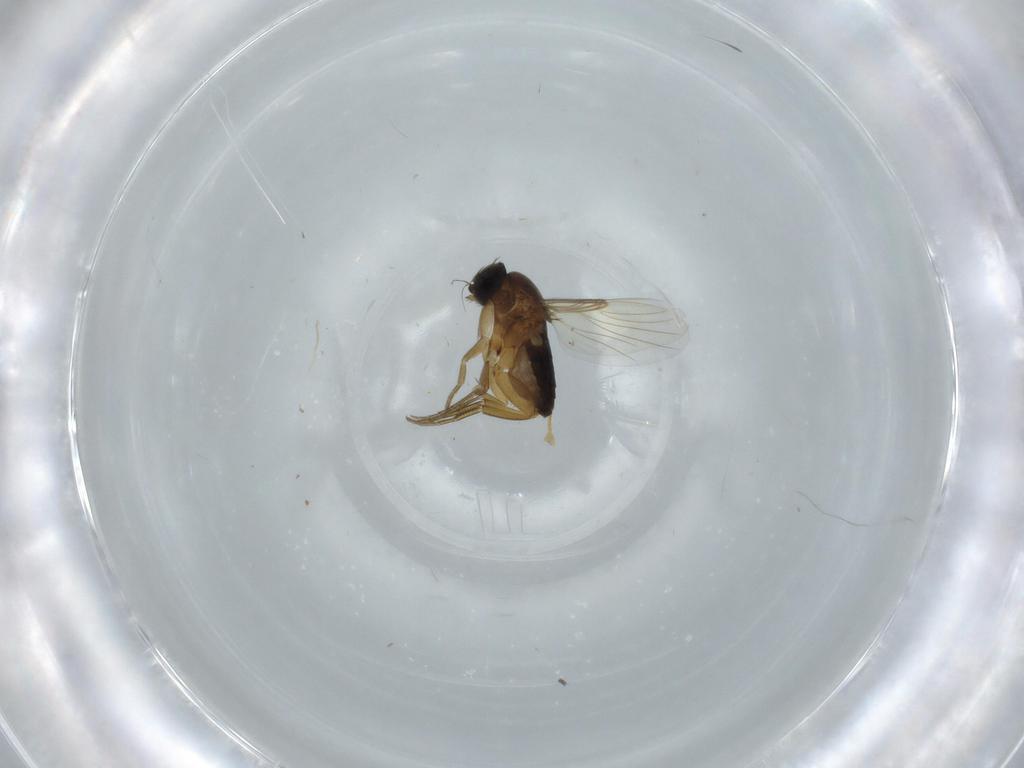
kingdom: Animalia
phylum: Arthropoda
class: Insecta
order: Diptera
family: Phoridae
